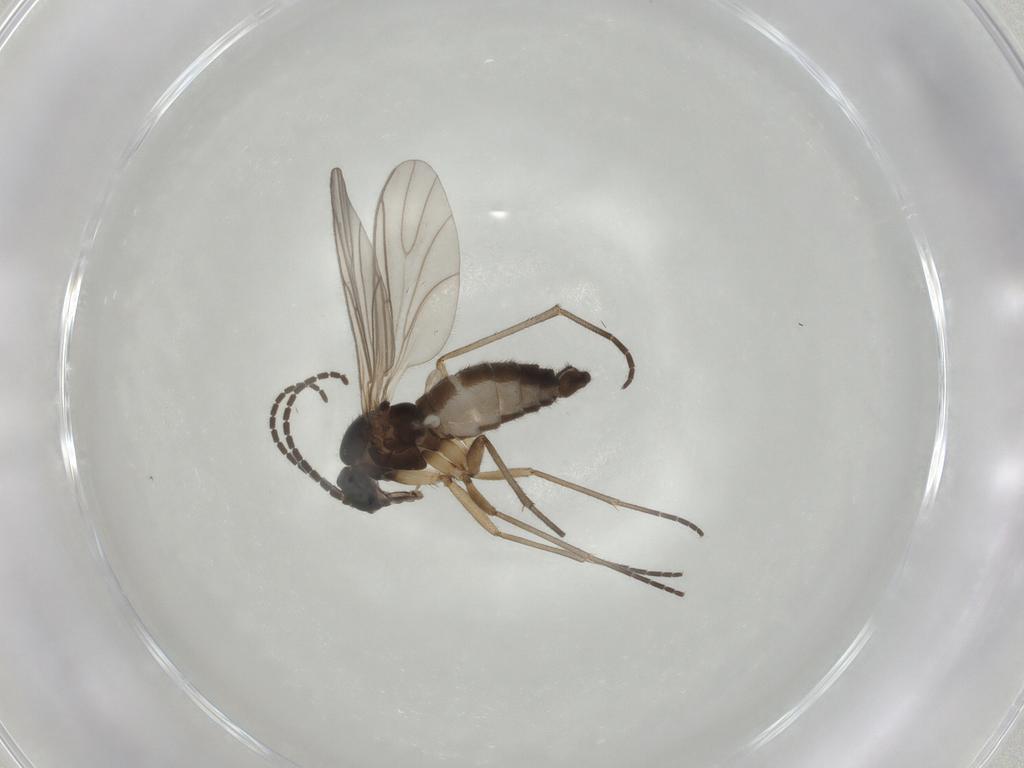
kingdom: Animalia
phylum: Arthropoda
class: Insecta
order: Diptera
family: Sciaridae
